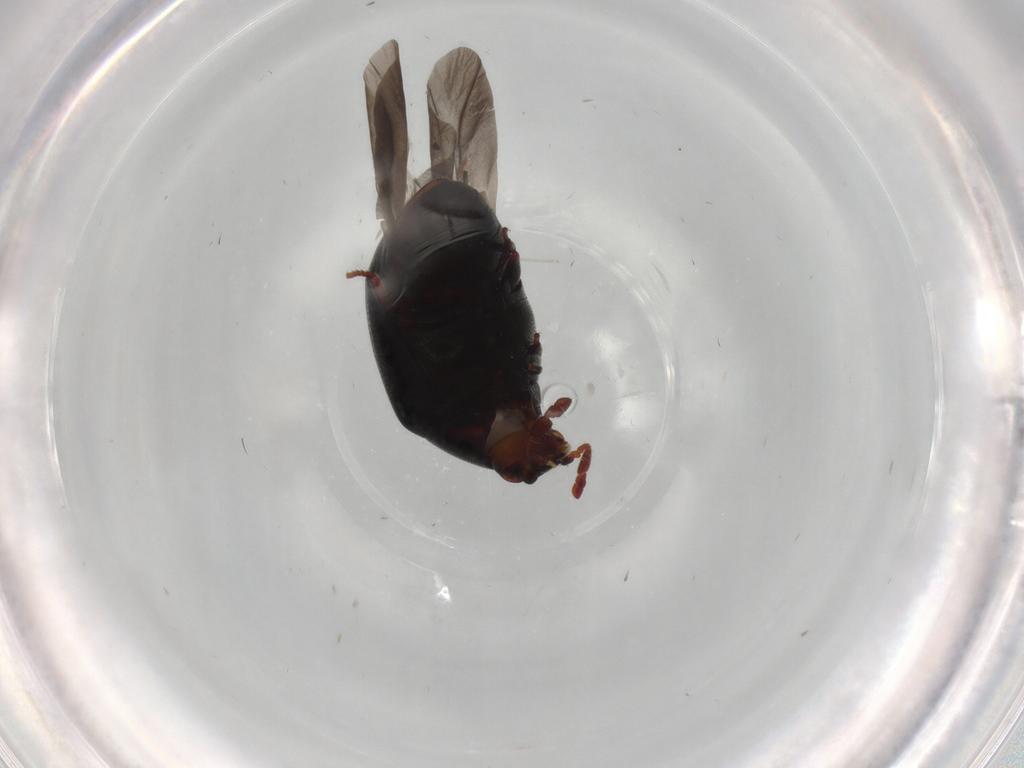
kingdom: Animalia
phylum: Arthropoda
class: Insecta
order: Coleoptera
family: Ptinidae
